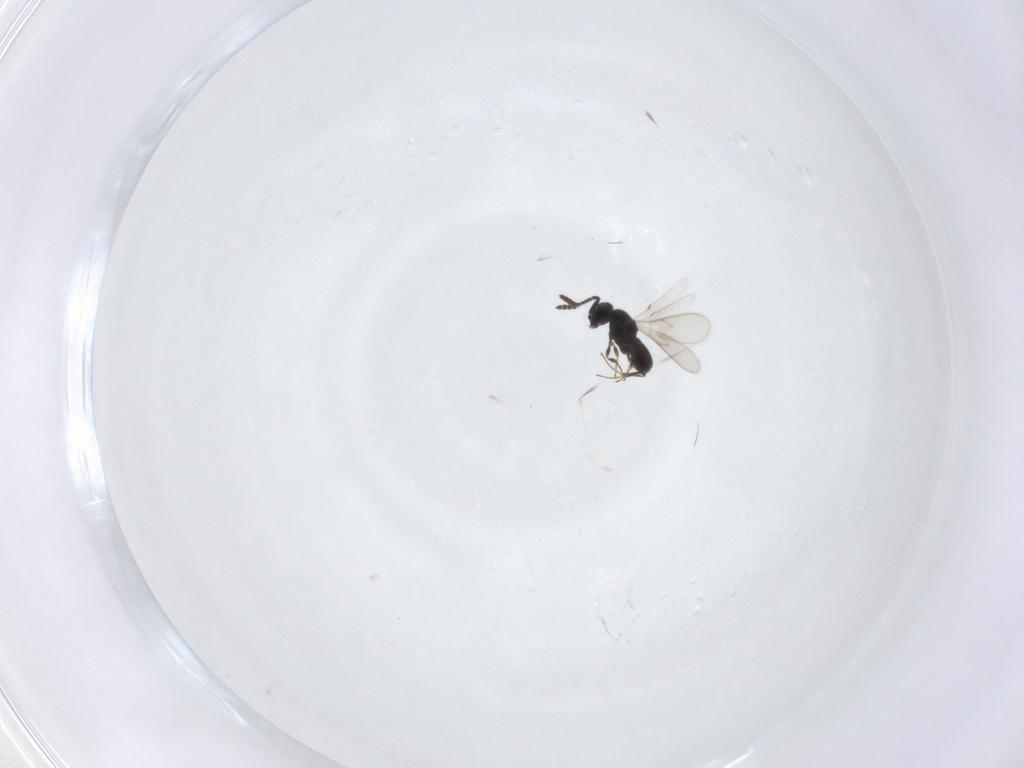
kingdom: Animalia
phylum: Arthropoda
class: Insecta
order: Hymenoptera
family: Scelionidae
